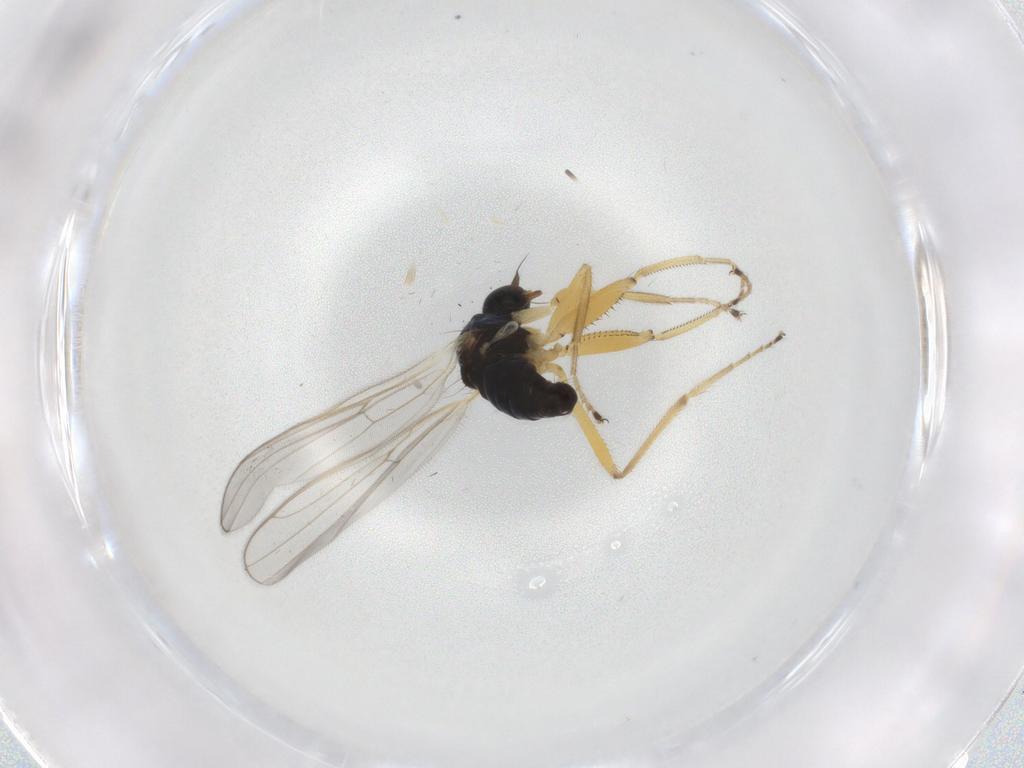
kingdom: Animalia
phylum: Arthropoda
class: Insecta
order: Diptera
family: Hybotidae
